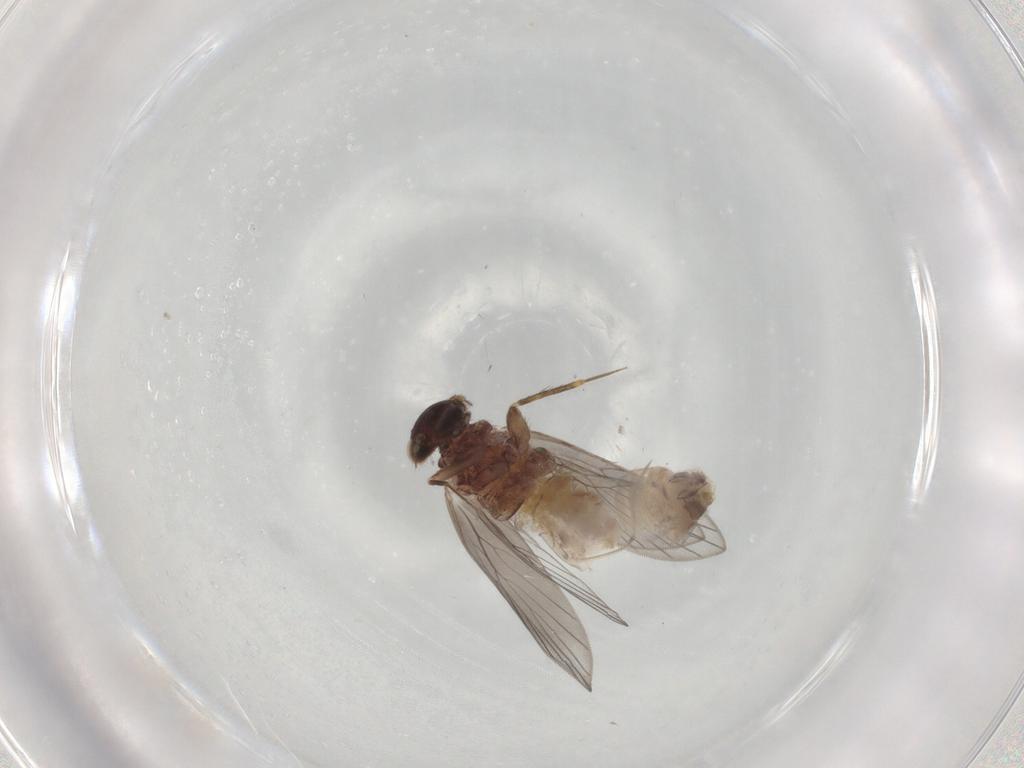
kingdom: Animalia
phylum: Arthropoda
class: Insecta
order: Psocodea
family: Lepidopsocidae
